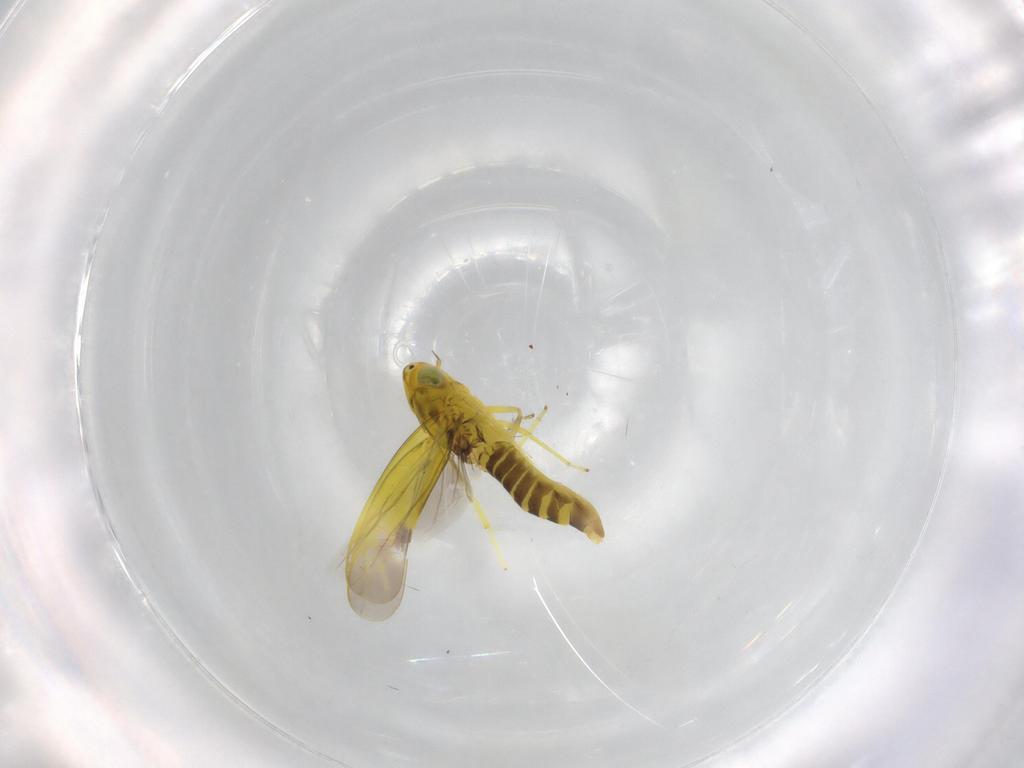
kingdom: Animalia
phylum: Arthropoda
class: Insecta
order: Hemiptera
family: Cicadellidae
